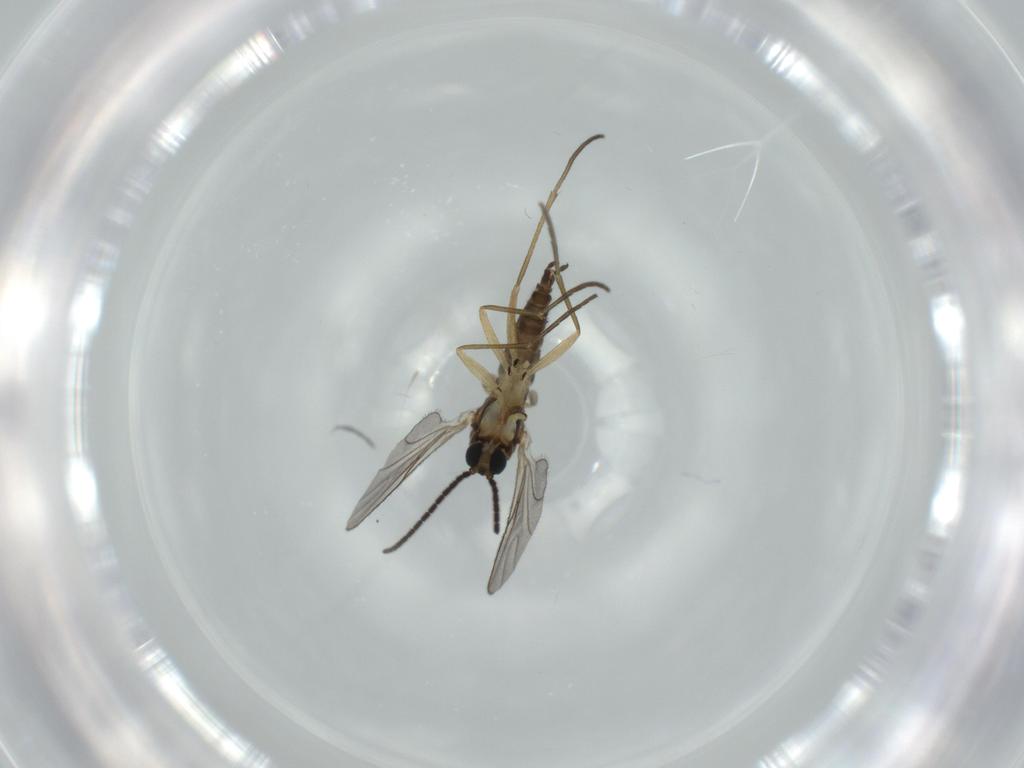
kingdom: Animalia
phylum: Arthropoda
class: Insecta
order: Diptera
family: Sciaridae
